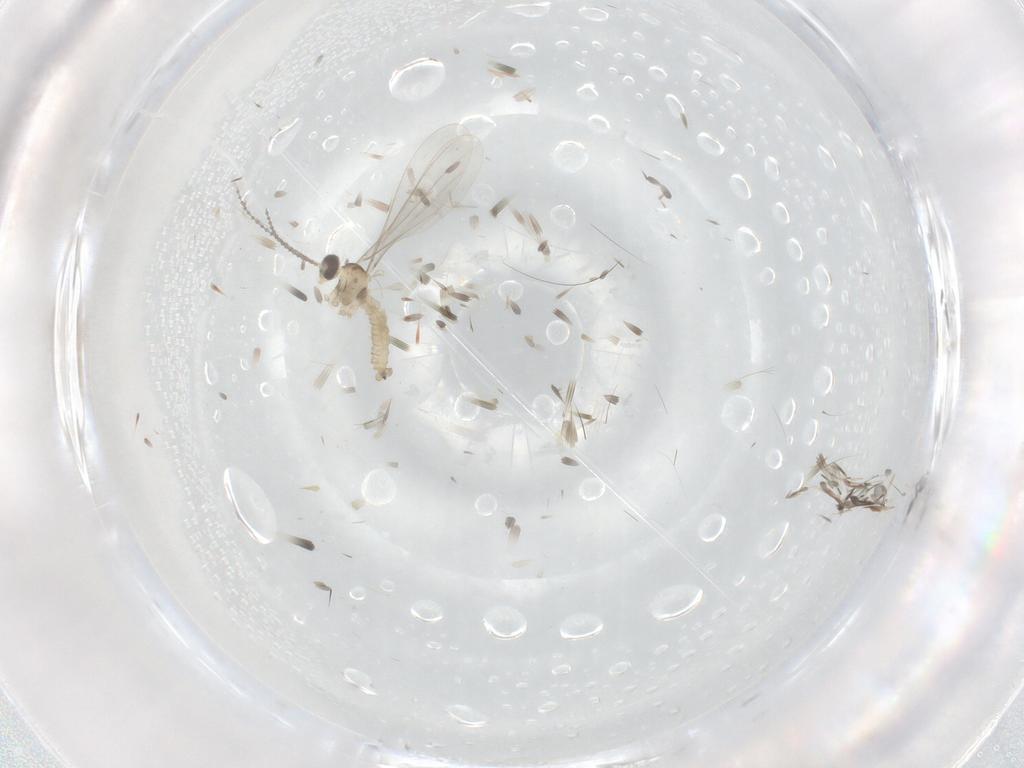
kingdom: Animalia
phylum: Arthropoda
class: Insecta
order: Diptera
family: Cecidomyiidae
